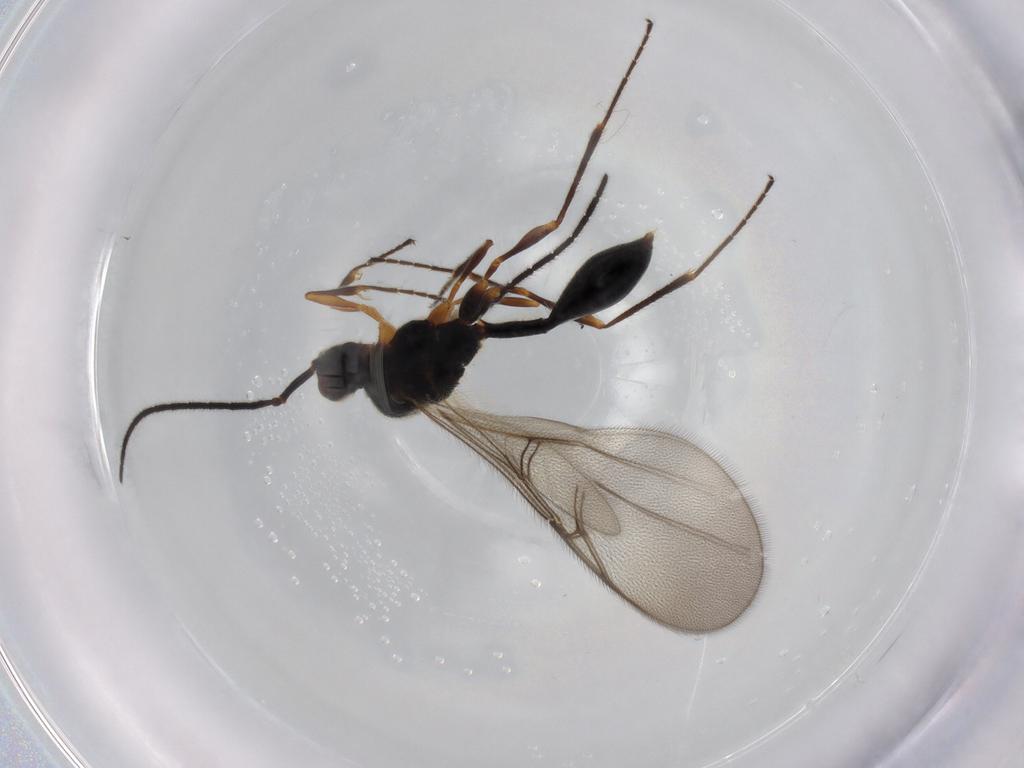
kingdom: Animalia
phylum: Arthropoda
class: Insecta
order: Hymenoptera
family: Diapriidae
